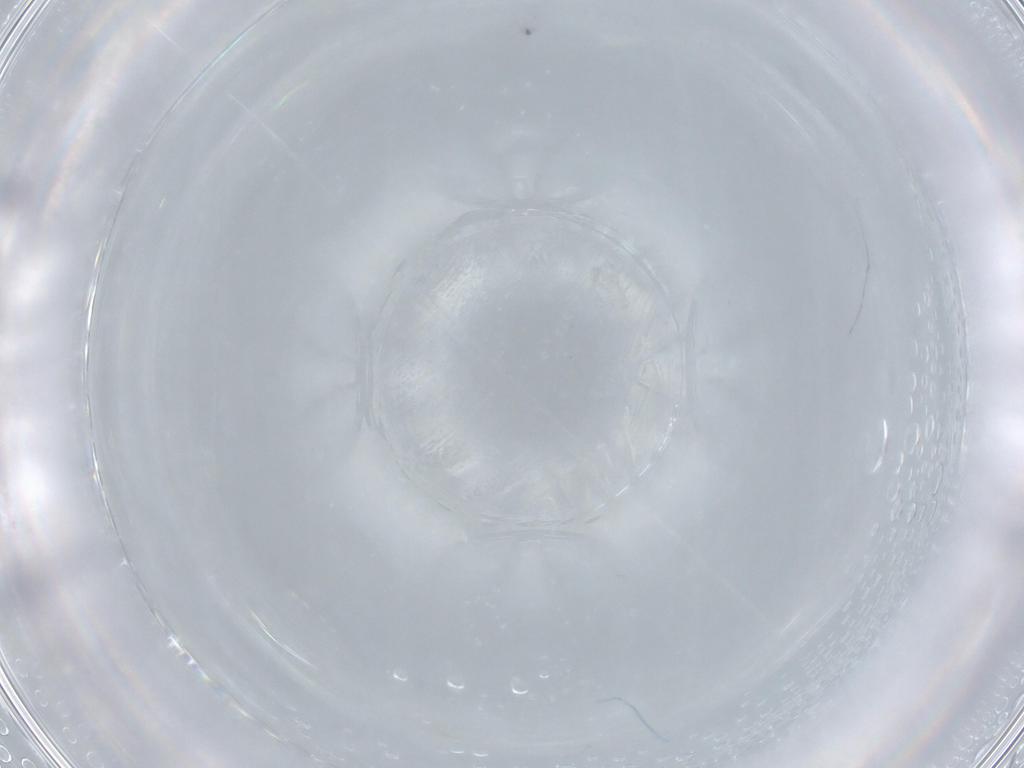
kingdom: Animalia
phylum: Arthropoda
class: Insecta
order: Hymenoptera
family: Mymaridae
